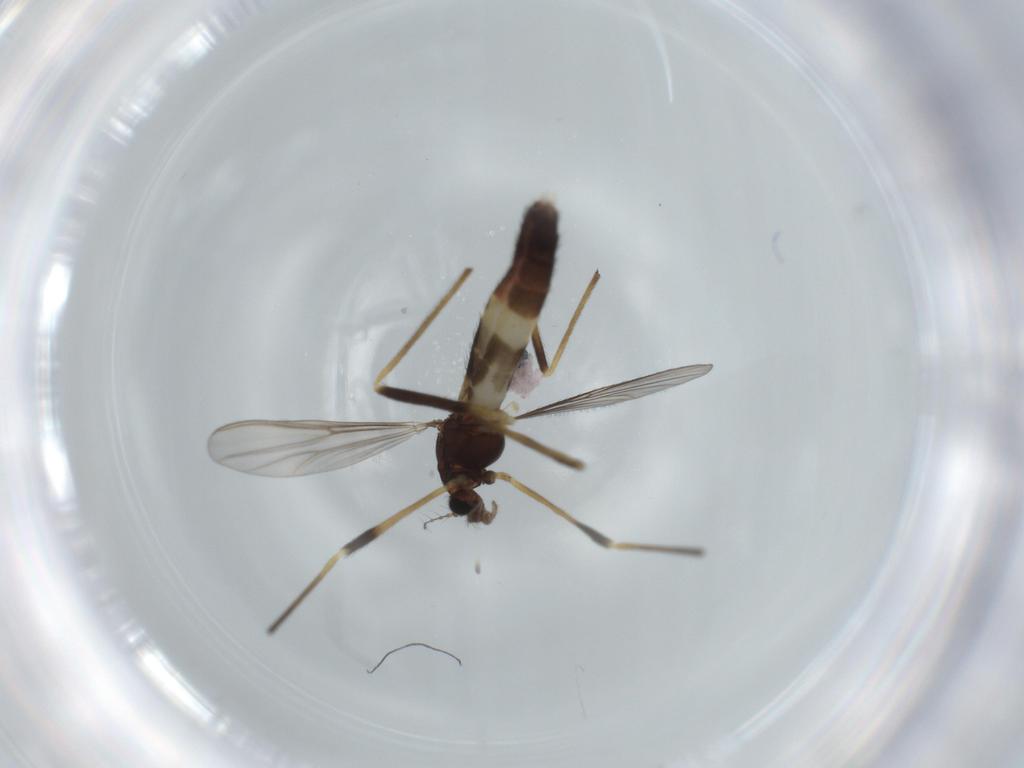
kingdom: Animalia
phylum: Arthropoda
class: Insecta
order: Diptera
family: Chironomidae
